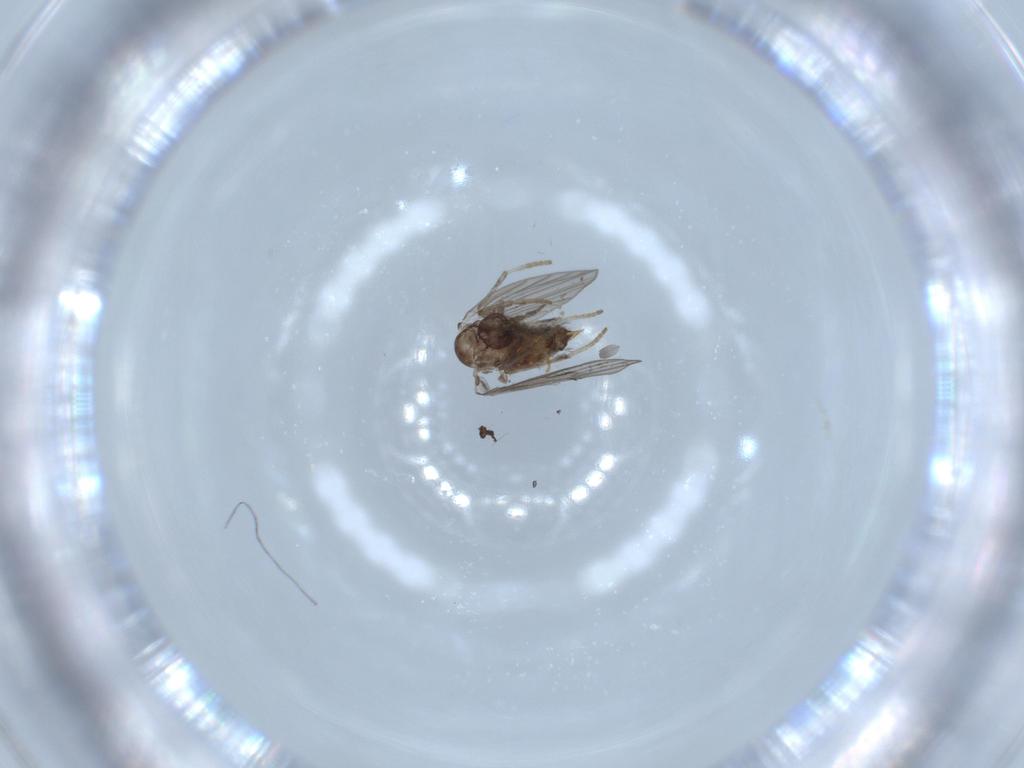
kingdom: Animalia
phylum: Arthropoda
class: Insecta
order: Diptera
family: Psychodidae
